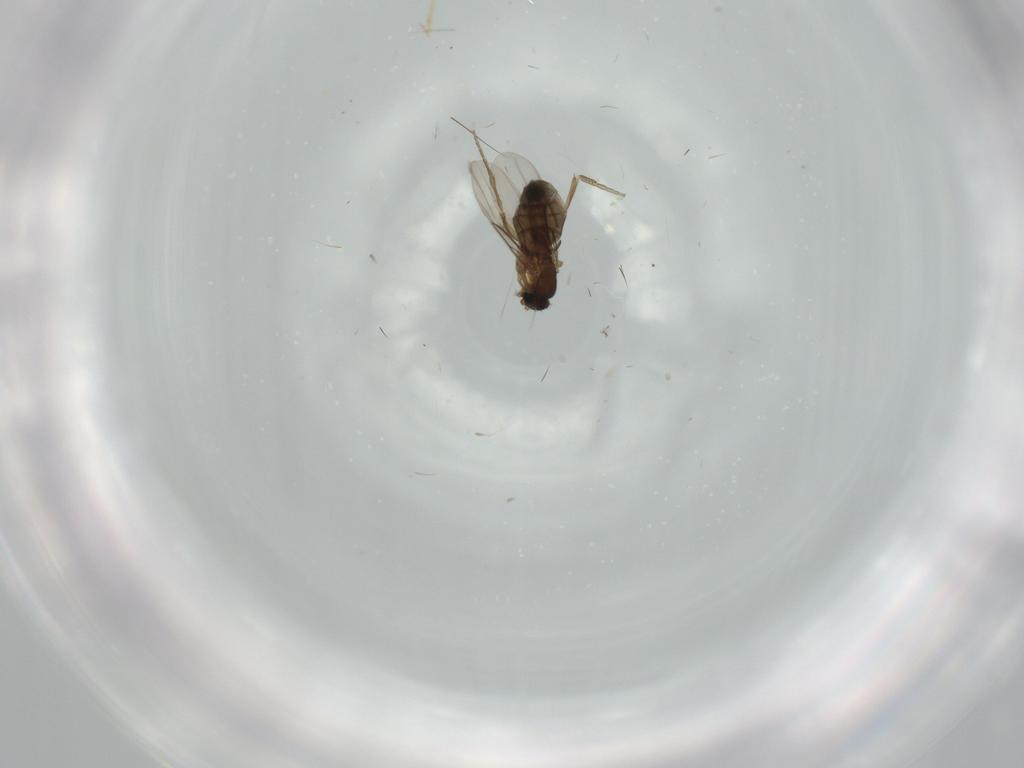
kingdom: Animalia
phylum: Arthropoda
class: Insecta
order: Diptera
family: Phoridae
